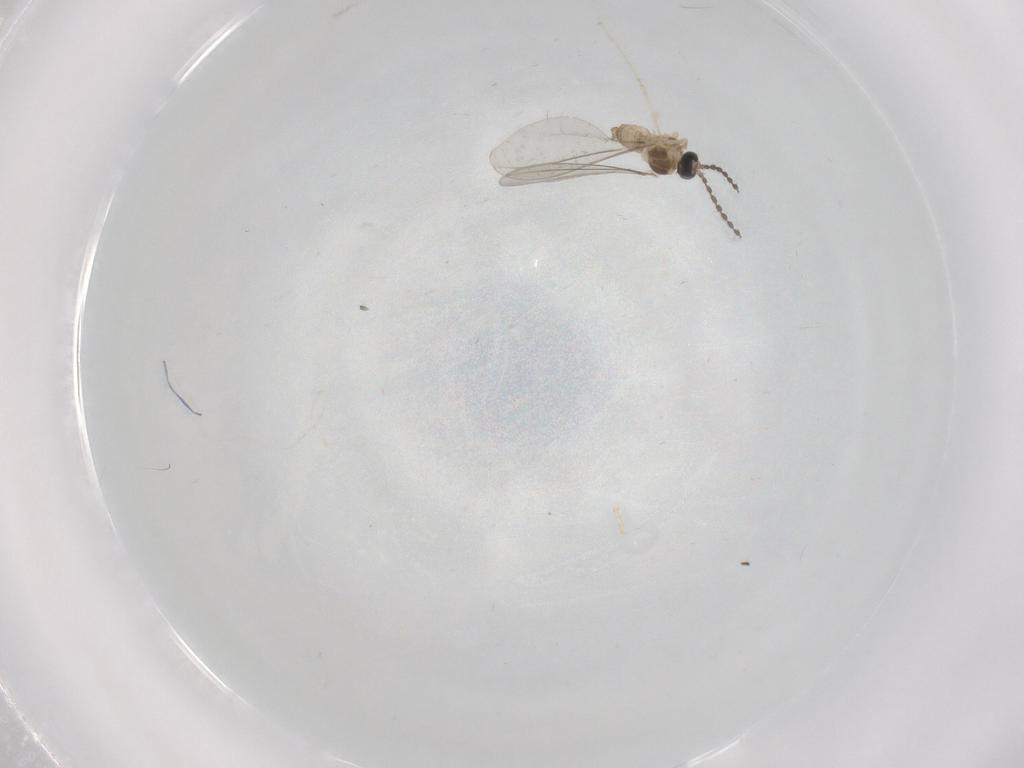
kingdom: Animalia
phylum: Arthropoda
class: Insecta
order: Diptera
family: Cecidomyiidae
